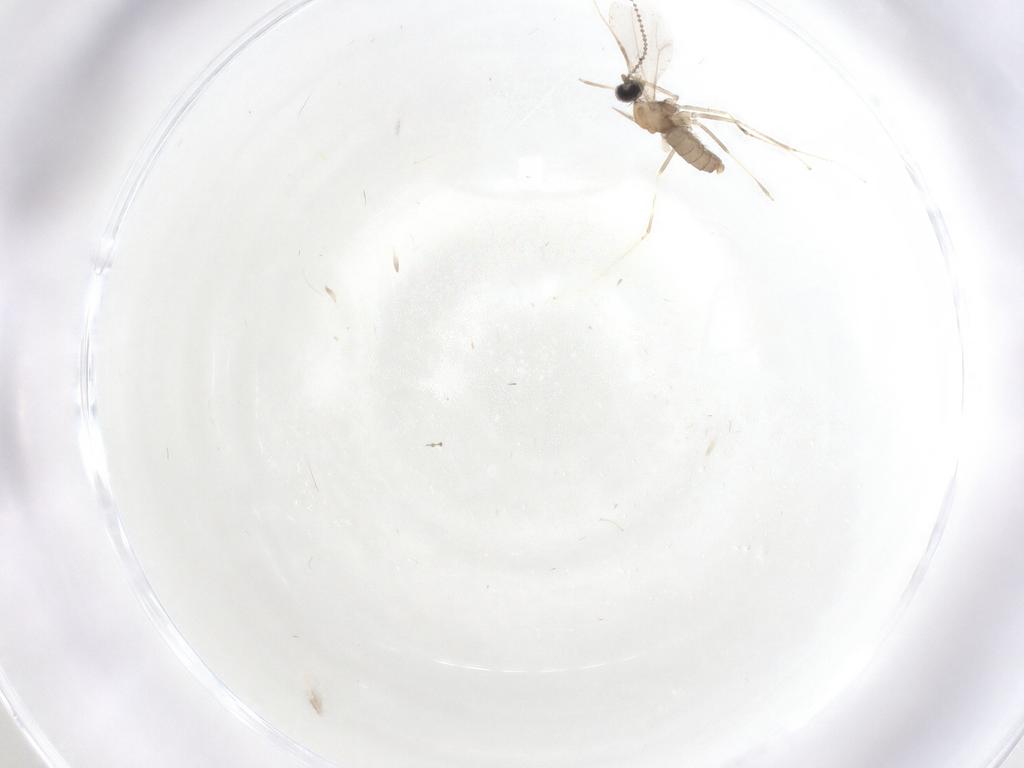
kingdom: Animalia
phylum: Arthropoda
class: Insecta
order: Diptera
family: Cecidomyiidae
